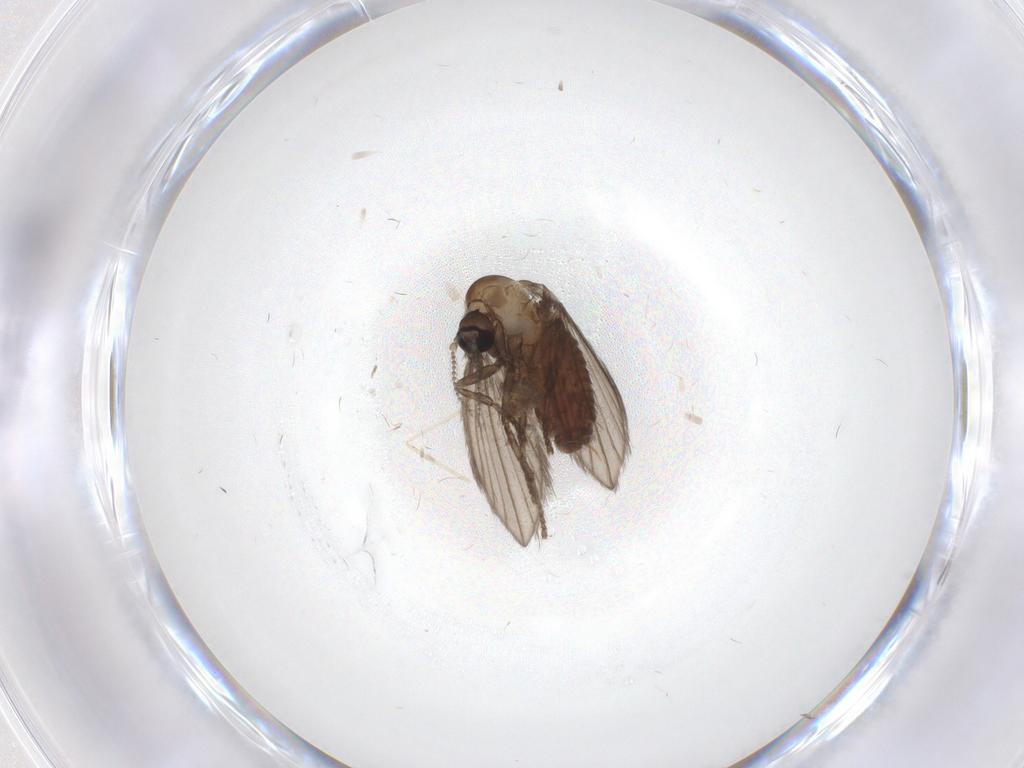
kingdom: Animalia
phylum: Arthropoda
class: Insecta
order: Diptera
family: Psychodidae
